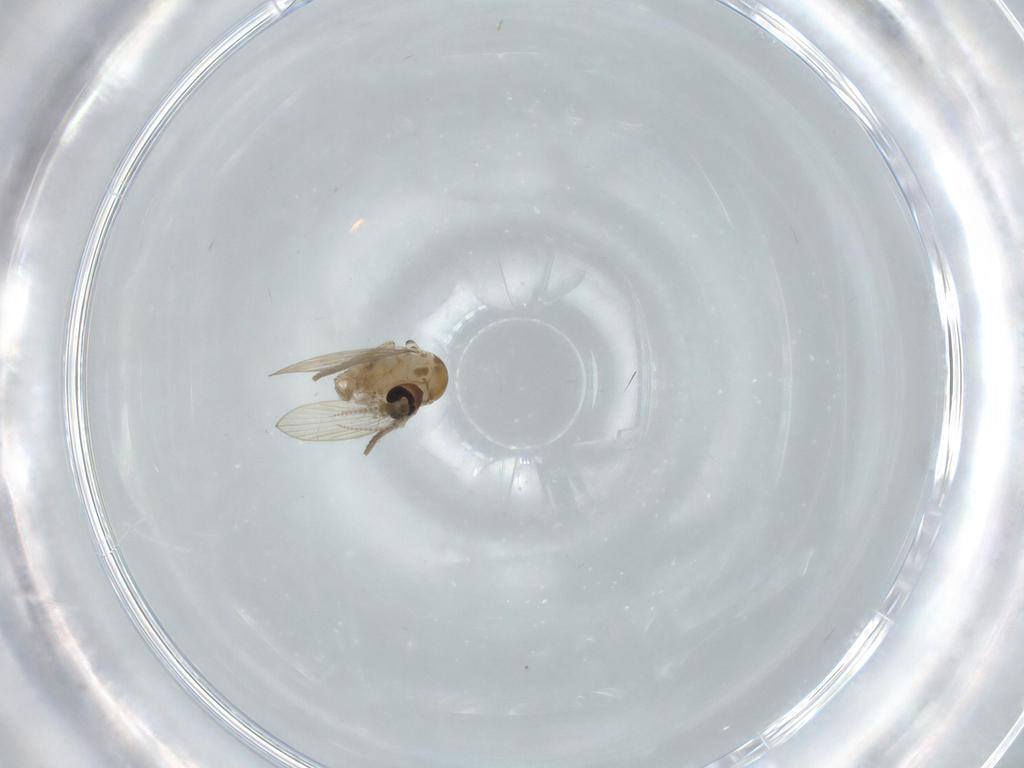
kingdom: Animalia
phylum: Arthropoda
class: Insecta
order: Diptera
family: Psychodidae
